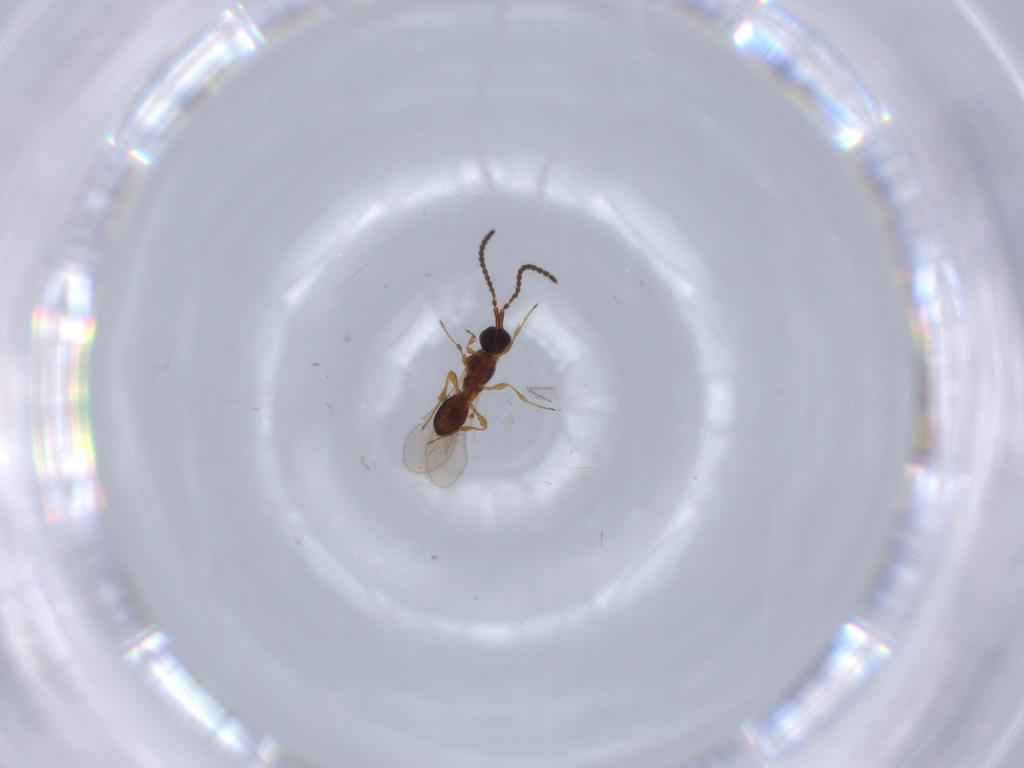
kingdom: Animalia
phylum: Arthropoda
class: Insecta
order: Hymenoptera
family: Diapriidae
